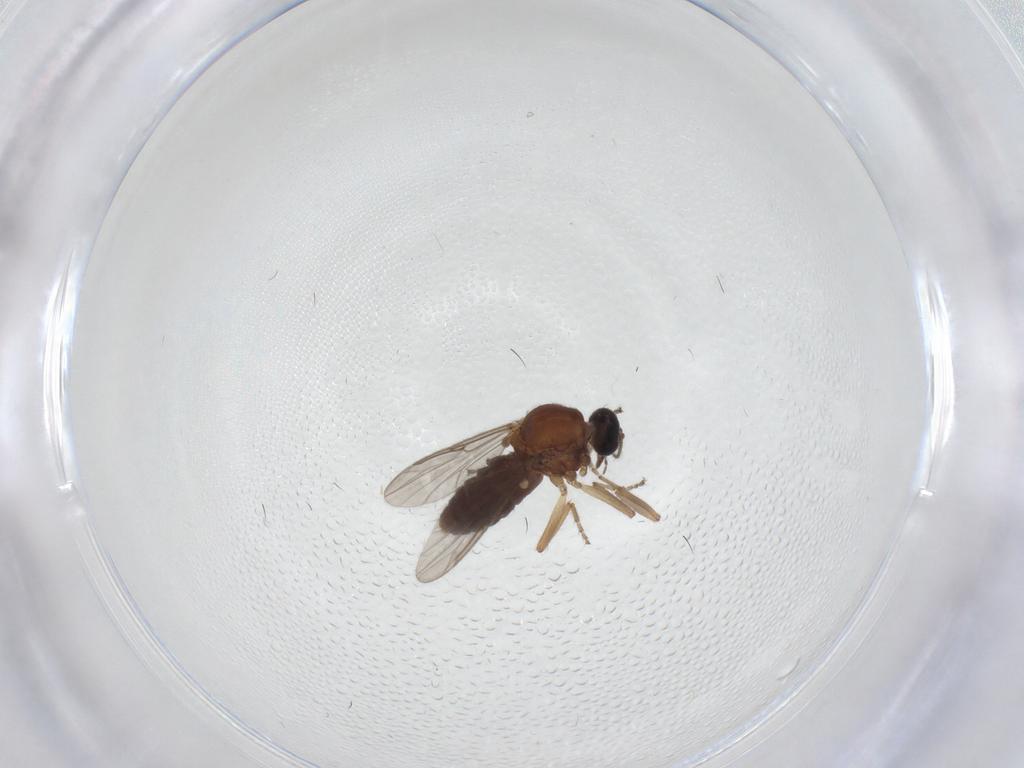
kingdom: Animalia
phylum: Arthropoda
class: Insecta
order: Diptera
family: Ceratopogonidae
